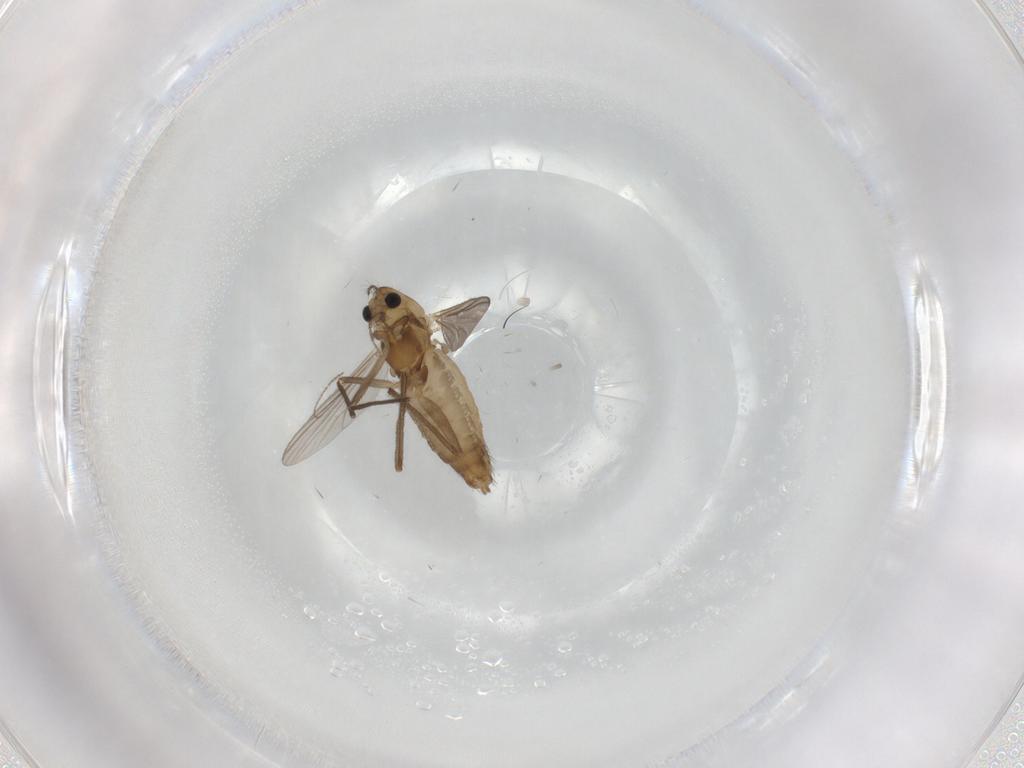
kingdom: Animalia
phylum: Arthropoda
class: Insecta
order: Diptera
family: Chironomidae
